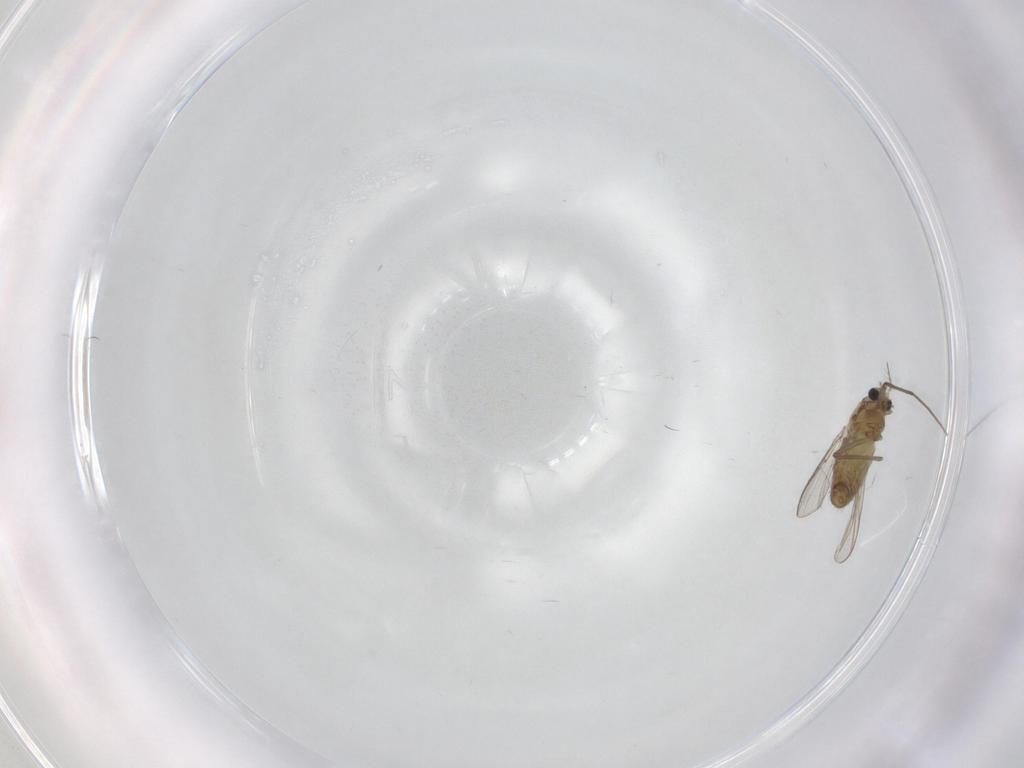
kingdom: Animalia
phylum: Arthropoda
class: Insecta
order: Diptera
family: Chironomidae
